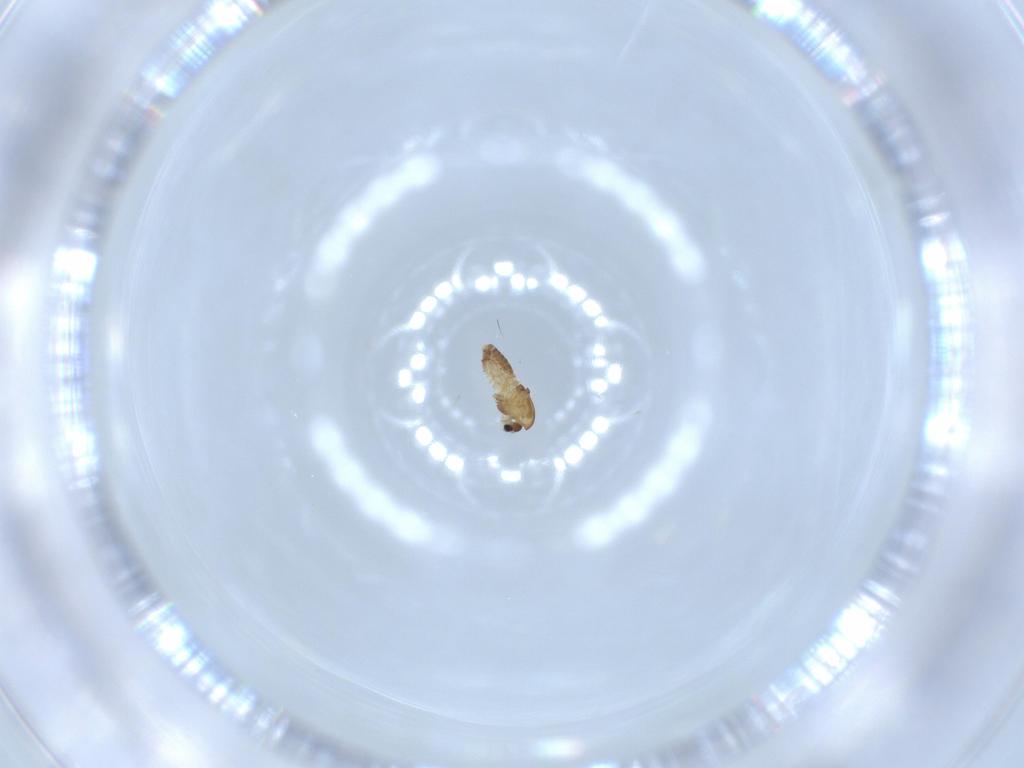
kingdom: Animalia
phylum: Arthropoda
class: Insecta
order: Diptera
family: Chironomidae
